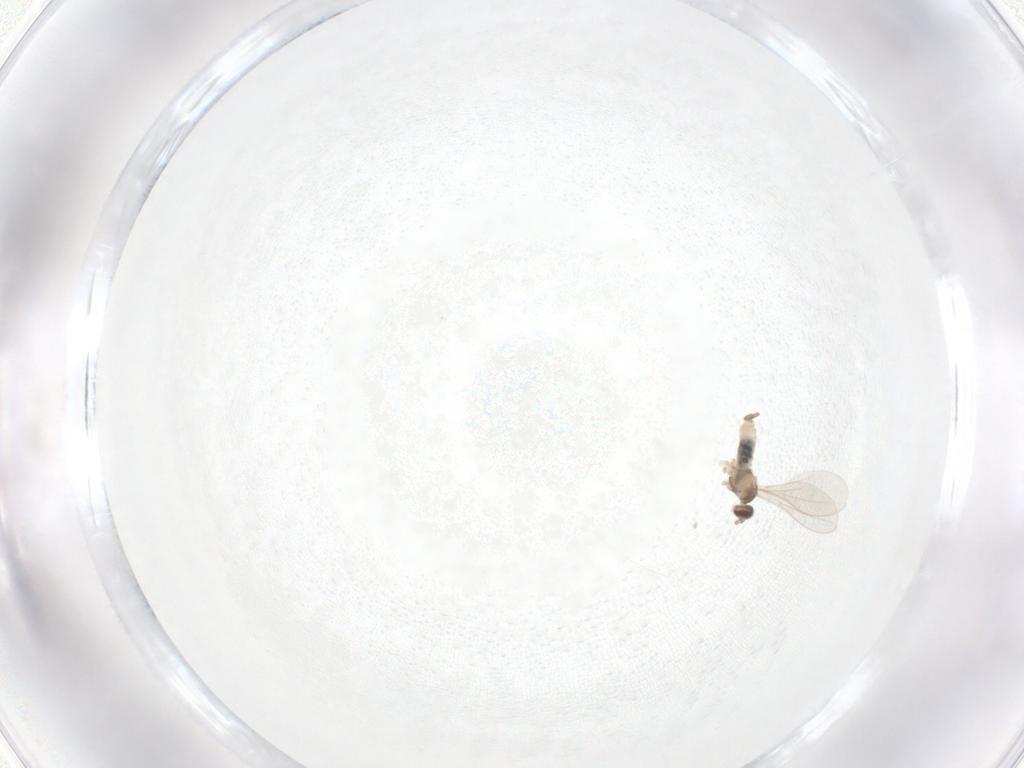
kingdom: Animalia
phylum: Arthropoda
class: Insecta
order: Diptera
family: Cecidomyiidae
